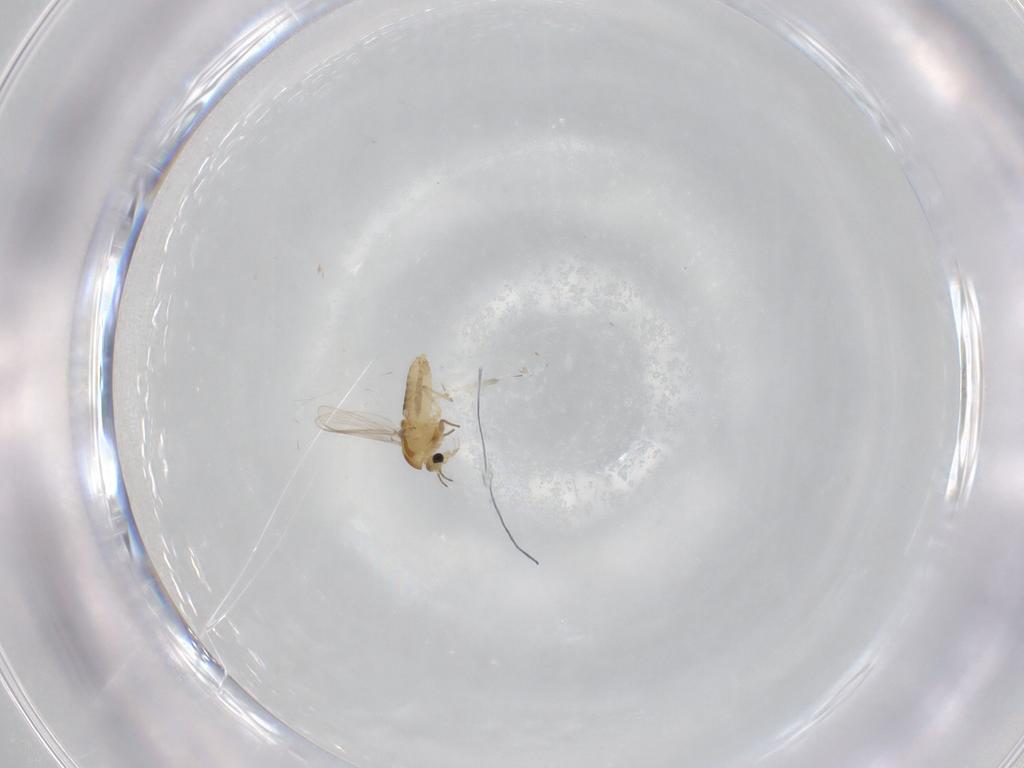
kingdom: Animalia
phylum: Arthropoda
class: Insecta
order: Diptera
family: Chironomidae
